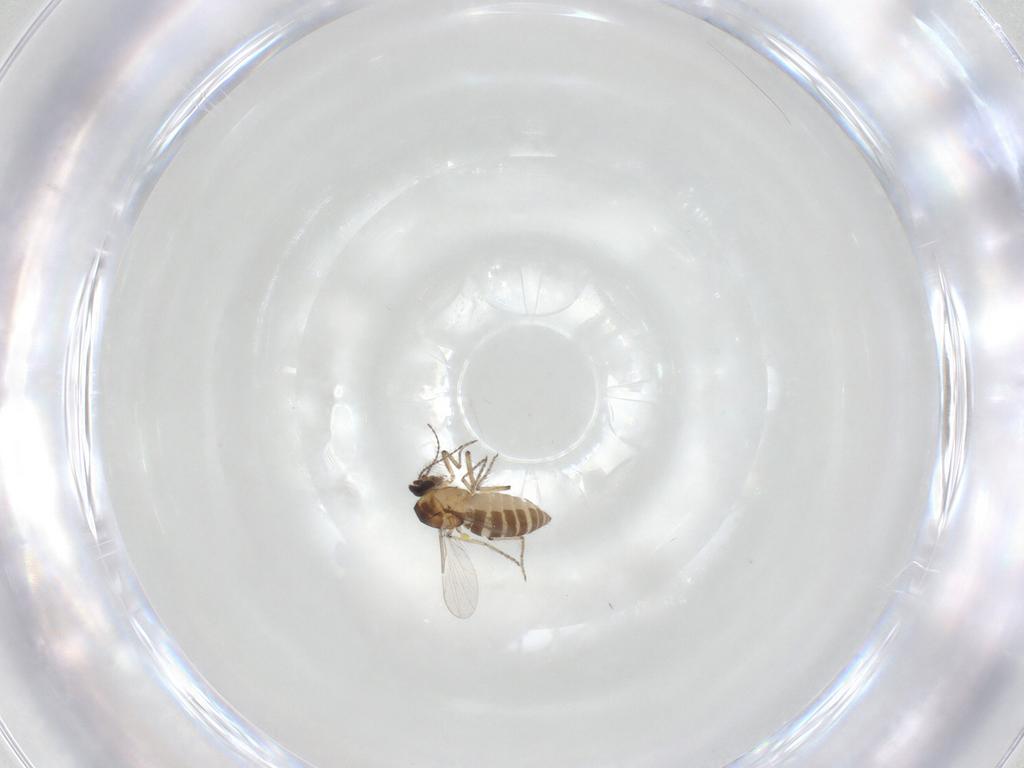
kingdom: Animalia
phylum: Arthropoda
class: Insecta
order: Diptera
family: Ceratopogonidae
